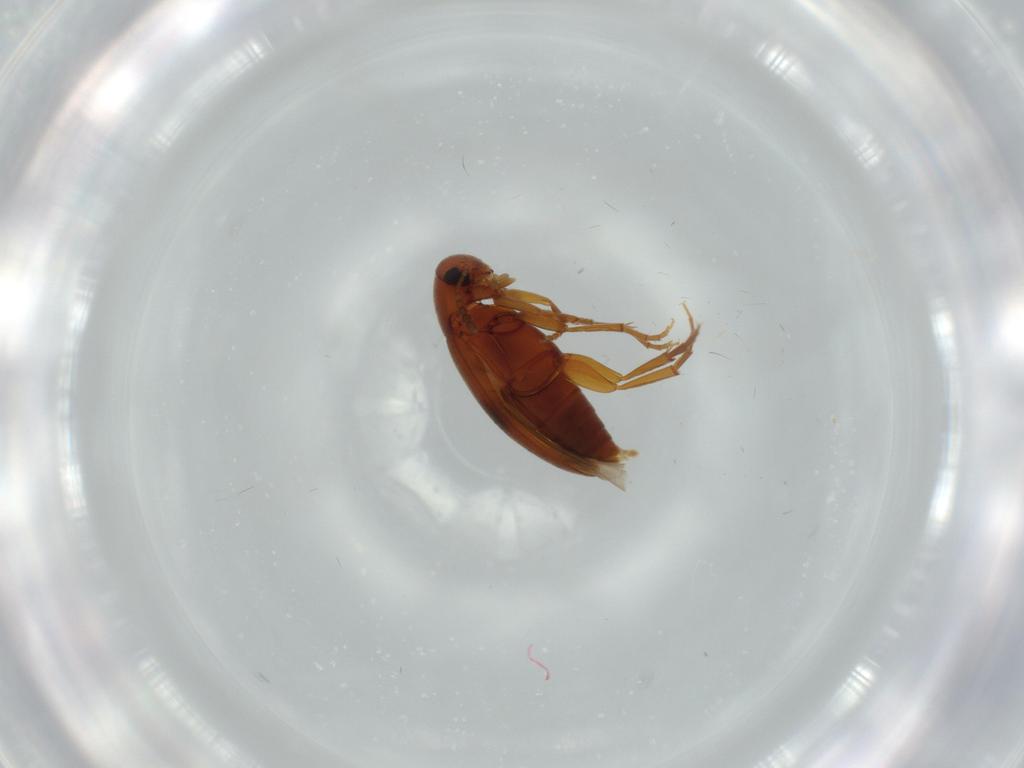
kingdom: Animalia
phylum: Arthropoda
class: Insecta
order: Coleoptera
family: Scraptiidae
